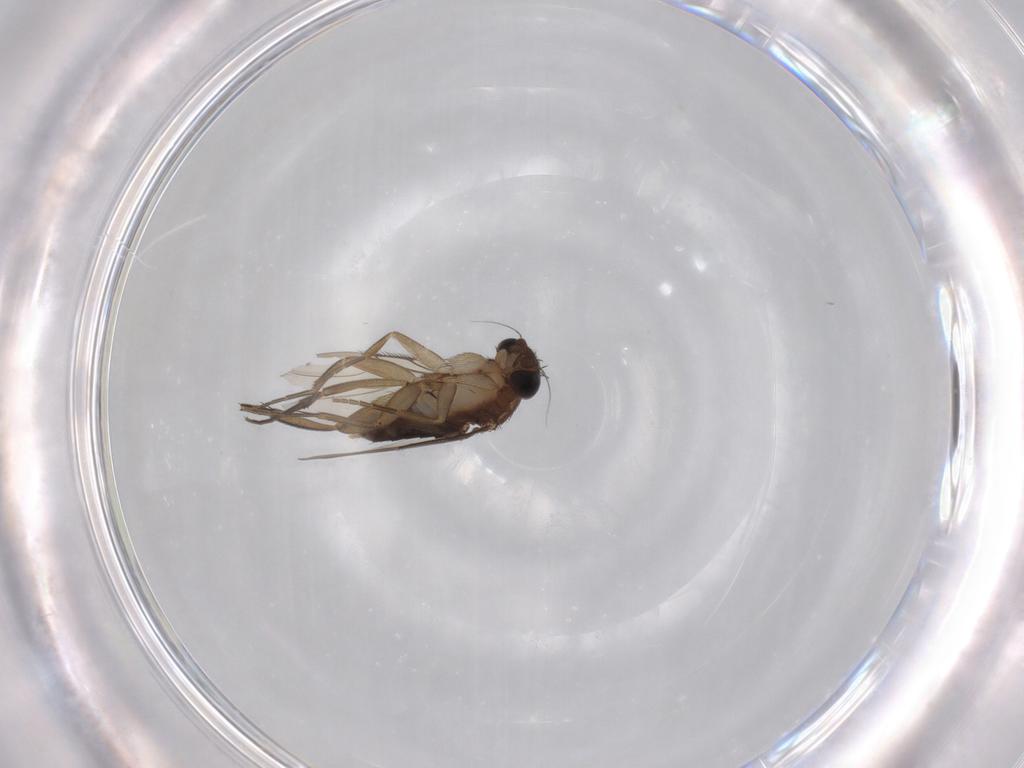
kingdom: Animalia
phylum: Arthropoda
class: Insecta
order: Diptera
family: Phoridae
